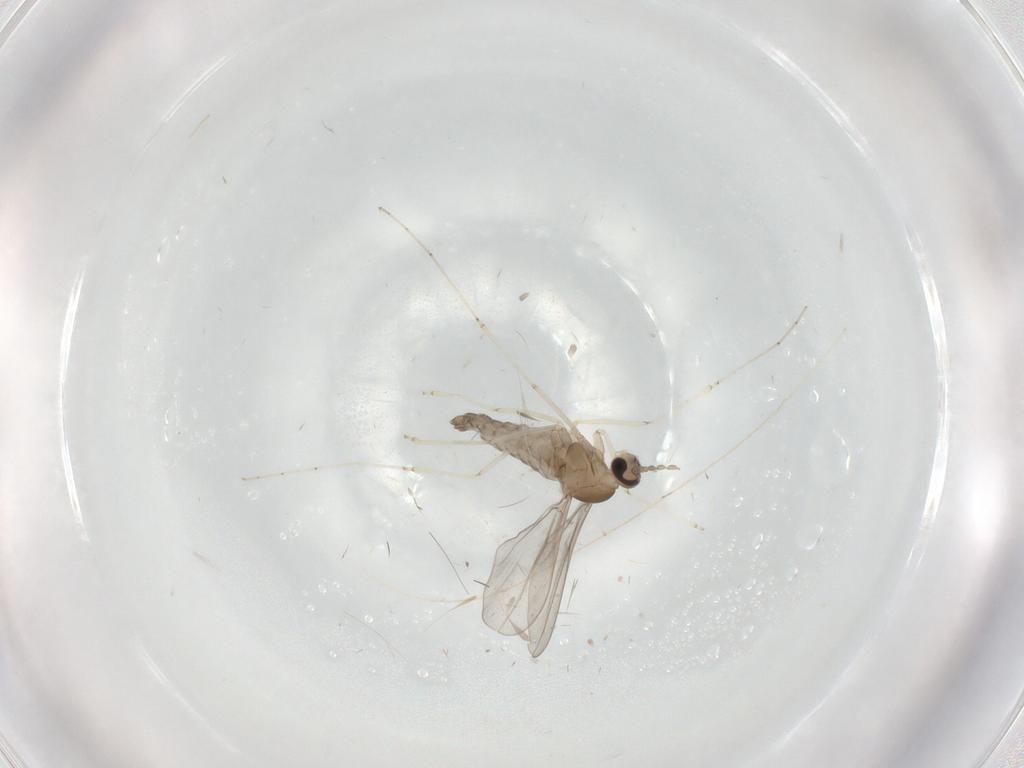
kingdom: Animalia
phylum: Arthropoda
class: Insecta
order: Diptera
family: Cecidomyiidae
